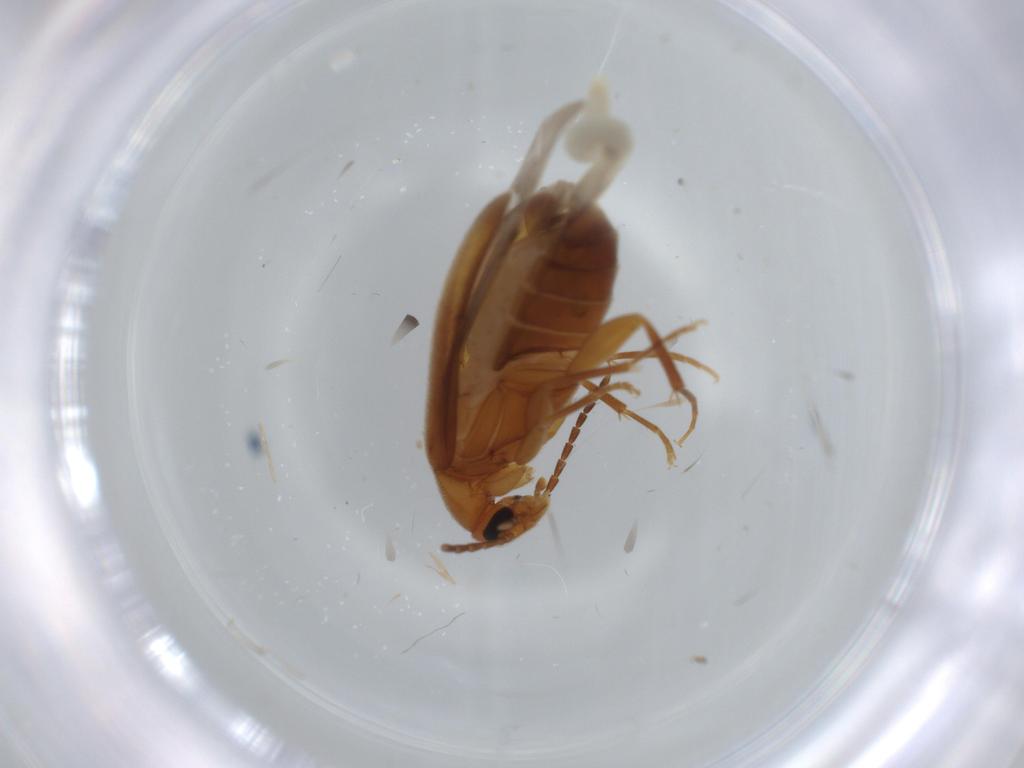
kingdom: Animalia
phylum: Arthropoda
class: Insecta
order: Coleoptera
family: Scraptiidae
